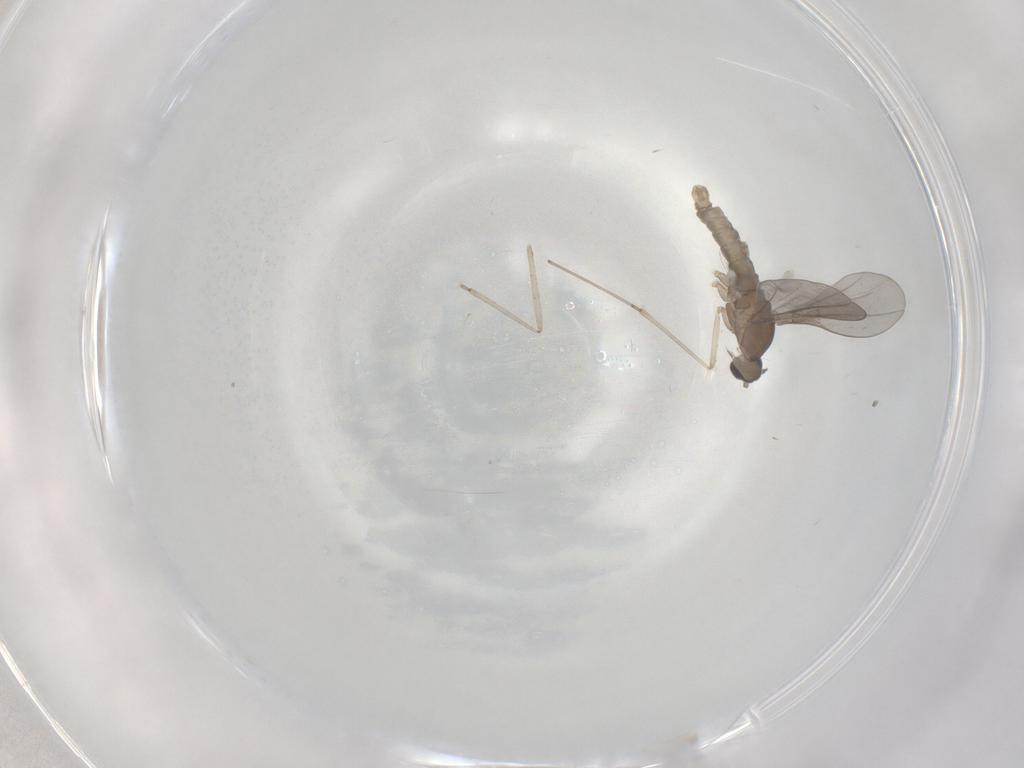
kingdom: Animalia
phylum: Arthropoda
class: Insecta
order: Diptera
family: Cecidomyiidae
